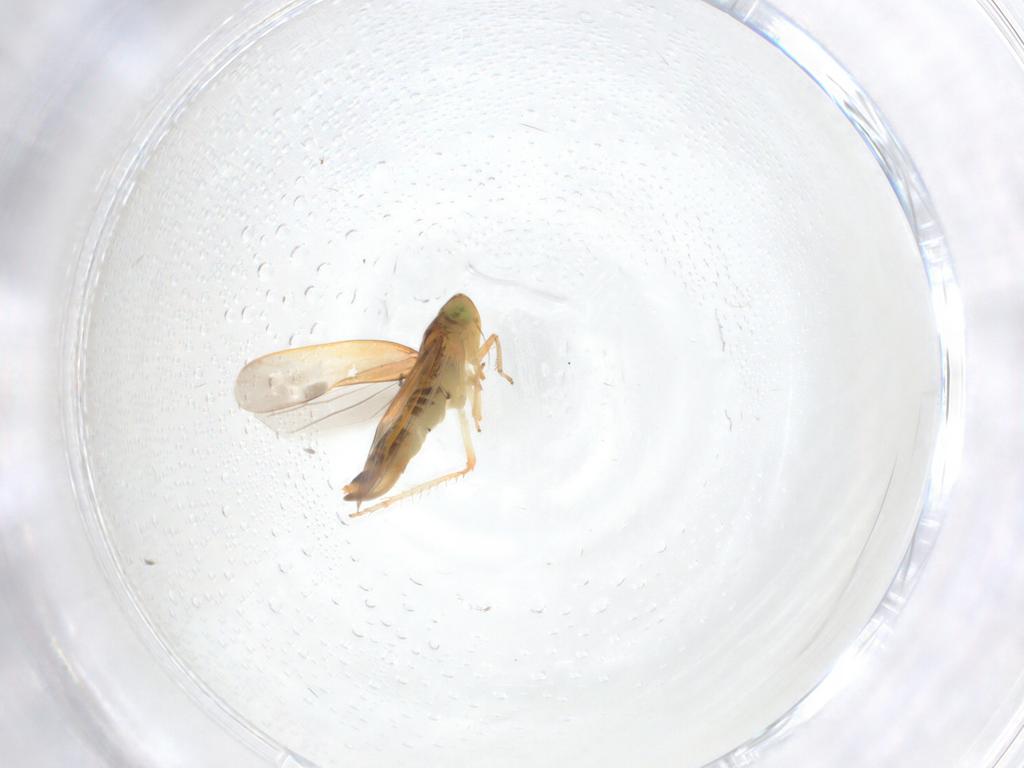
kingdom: Animalia
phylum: Arthropoda
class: Insecta
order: Hemiptera
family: Cicadellidae
